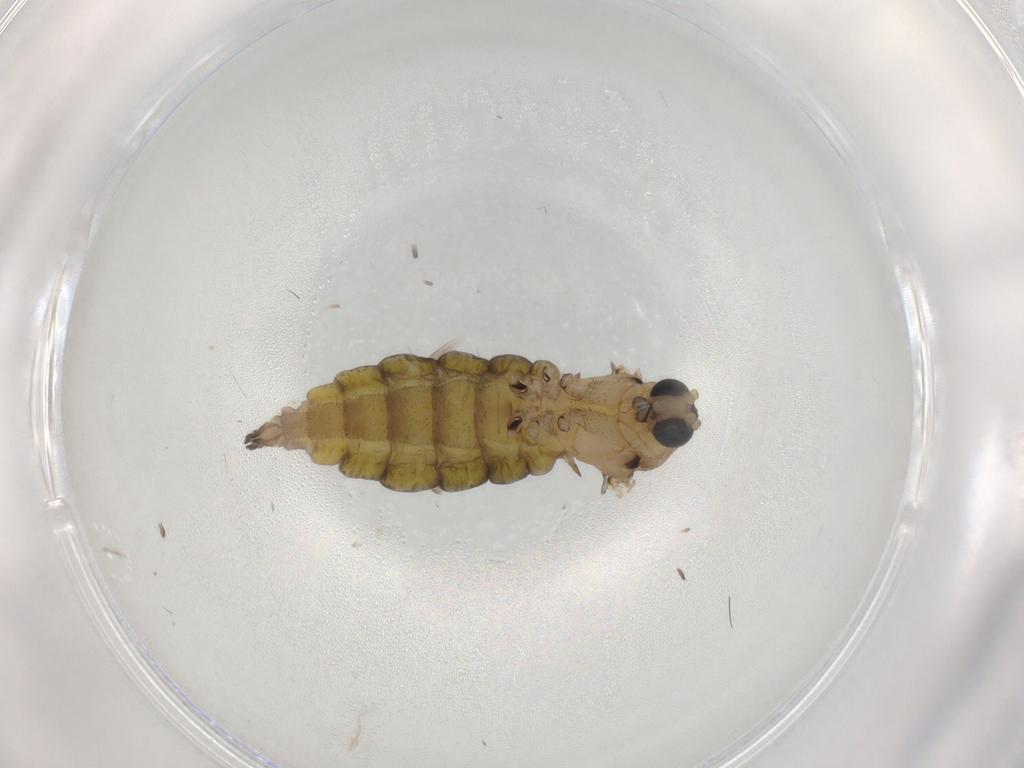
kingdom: Animalia
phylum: Arthropoda
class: Insecta
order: Diptera
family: Sciaridae
